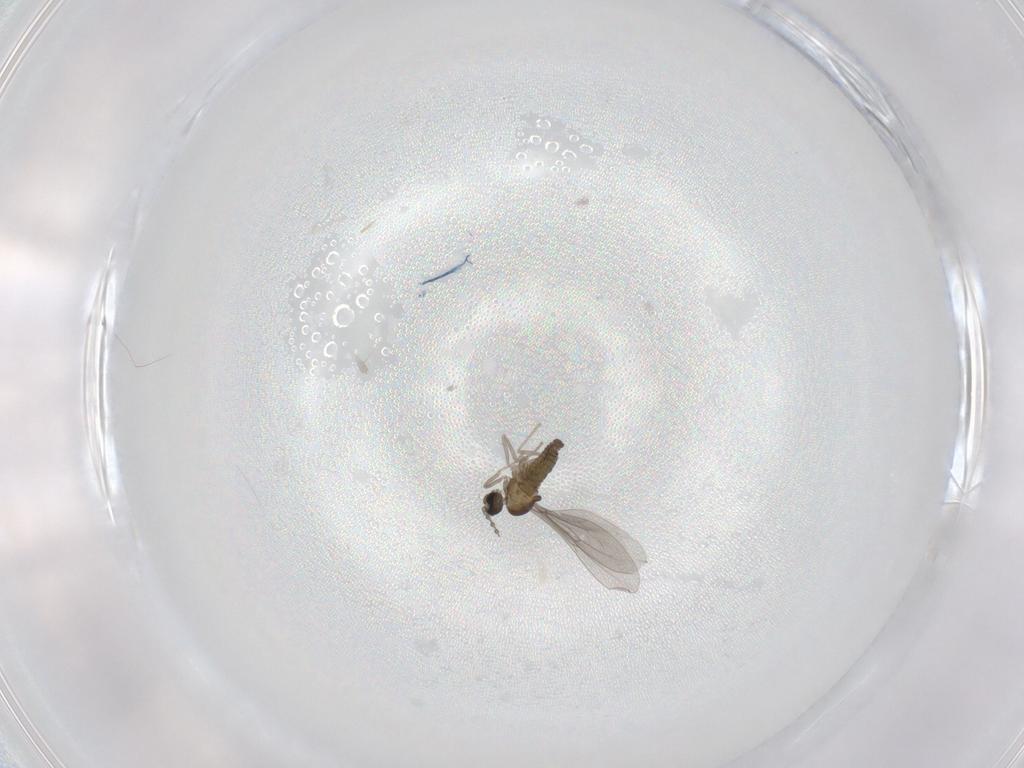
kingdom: Animalia
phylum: Arthropoda
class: Insecta
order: Diptera
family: Cecidomyiidae
